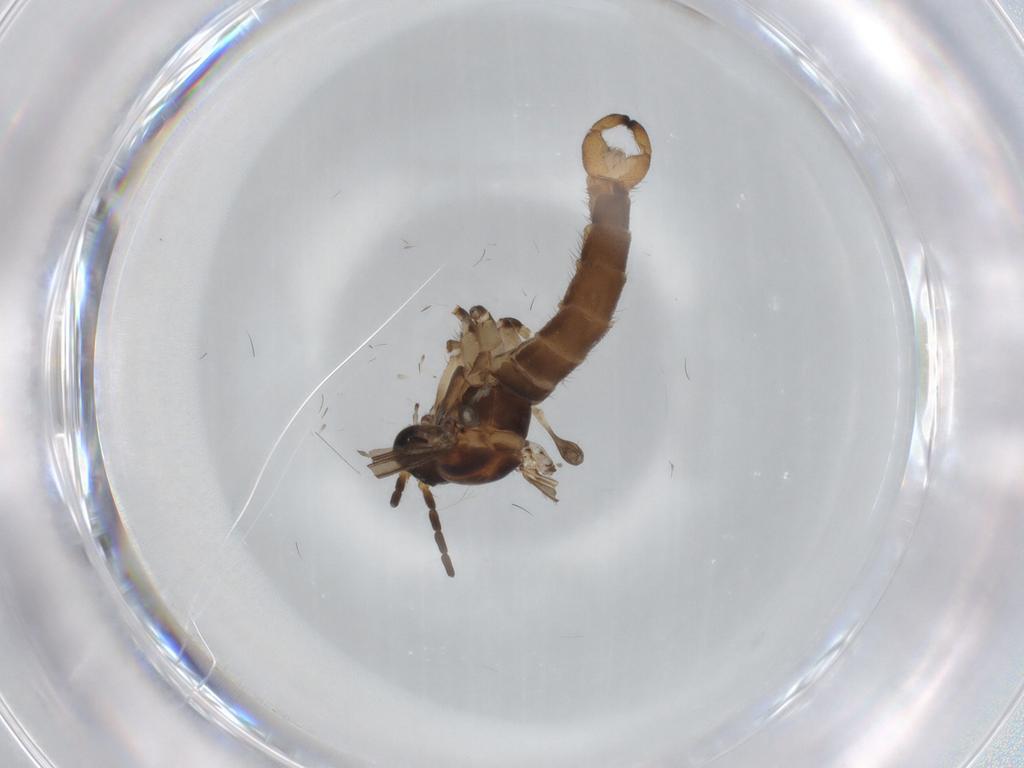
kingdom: Animalia
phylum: Arthropoda
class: Insecta
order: Diptera
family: Sciaridae
